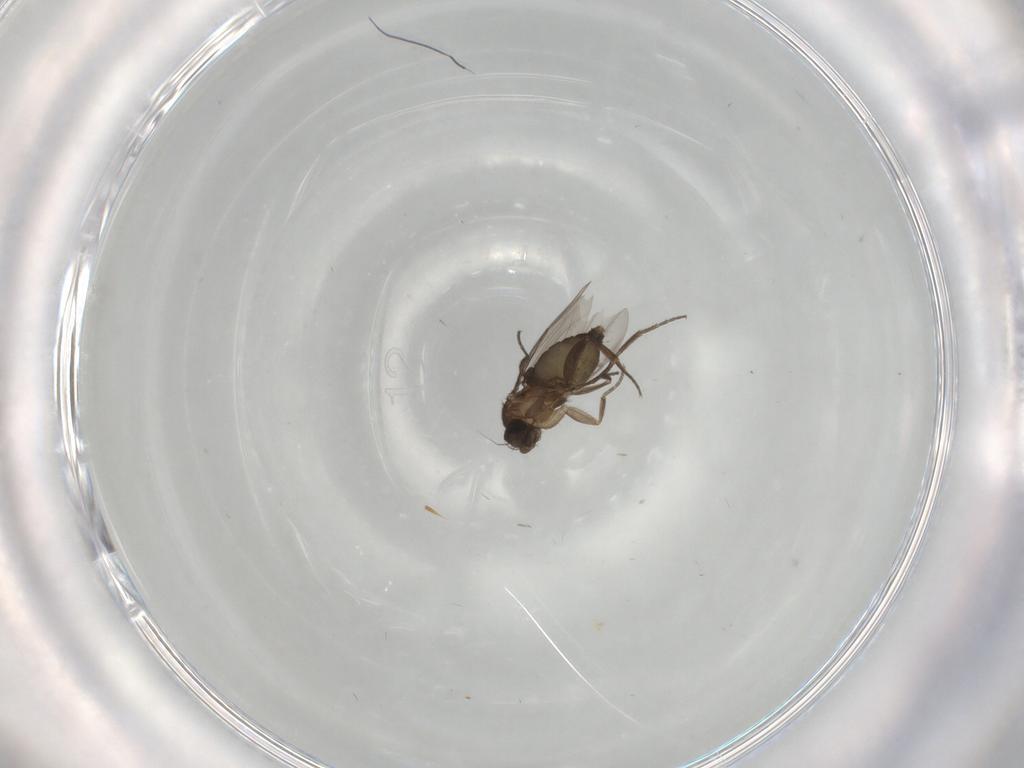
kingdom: Animalia
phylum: Arthropoda
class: Insecta
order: Diptera
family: Phoridae
